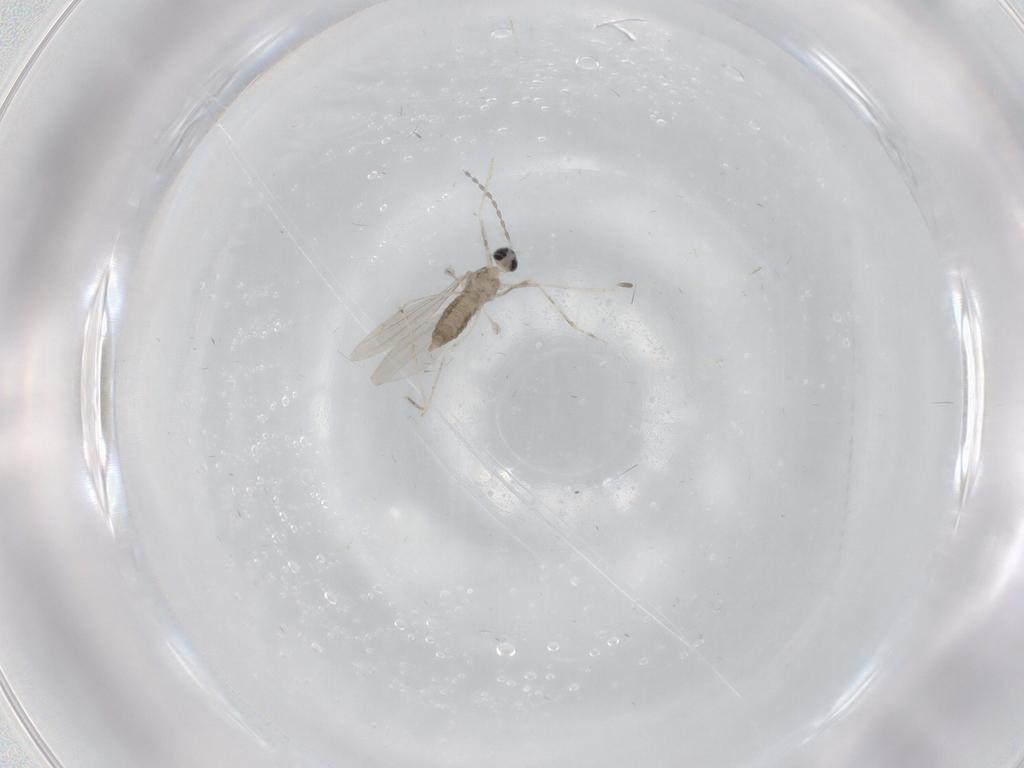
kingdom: Animalia
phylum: Arthropoda
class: Insecta
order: Diptera
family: Cecidomyiidae
